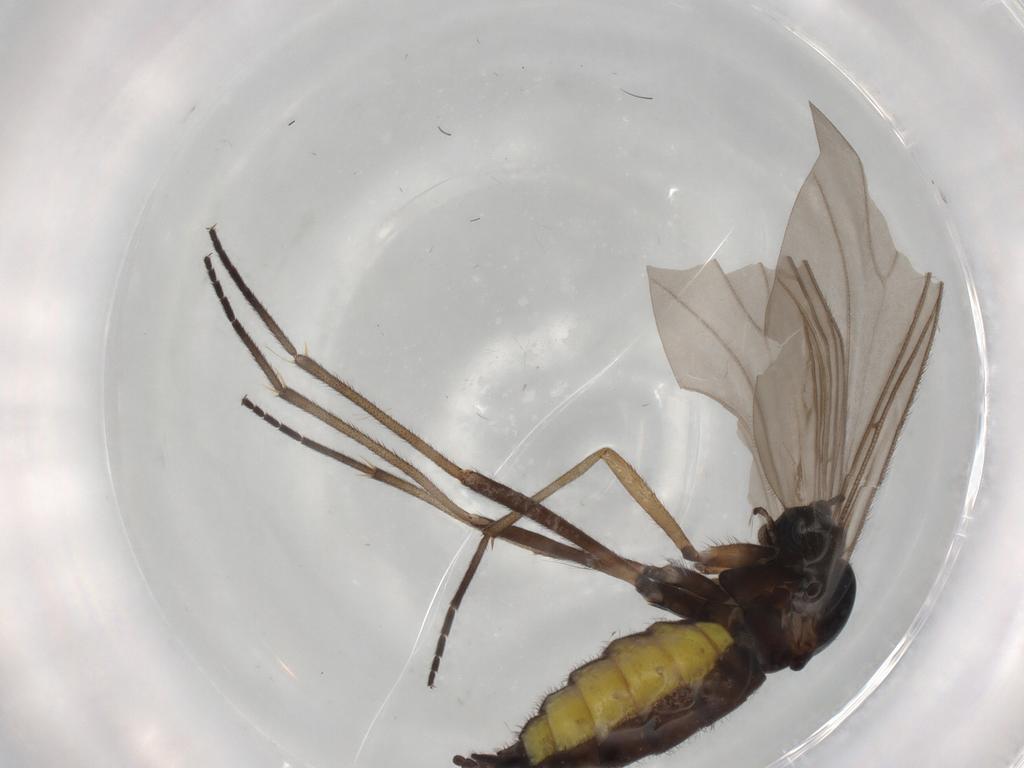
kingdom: Animalia
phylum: Arthropoda
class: Insecta
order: Diptera
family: Sciaridae
